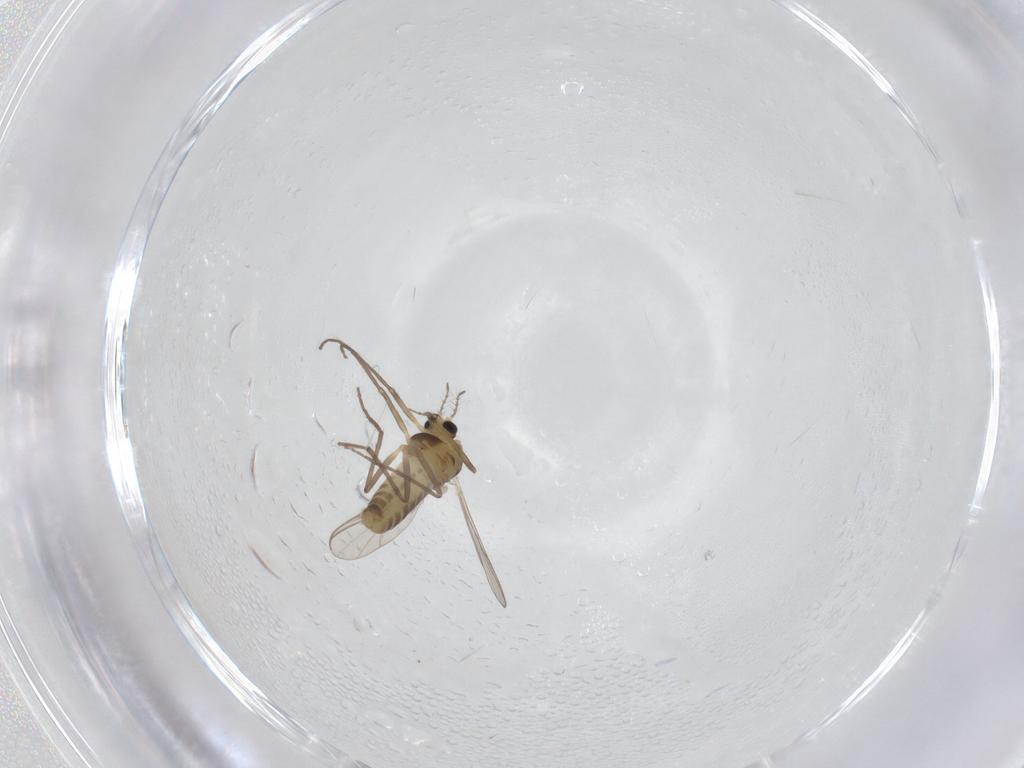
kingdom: Animalia
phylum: Arthropoda
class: Insecta
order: Diptera
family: Chironomidae
